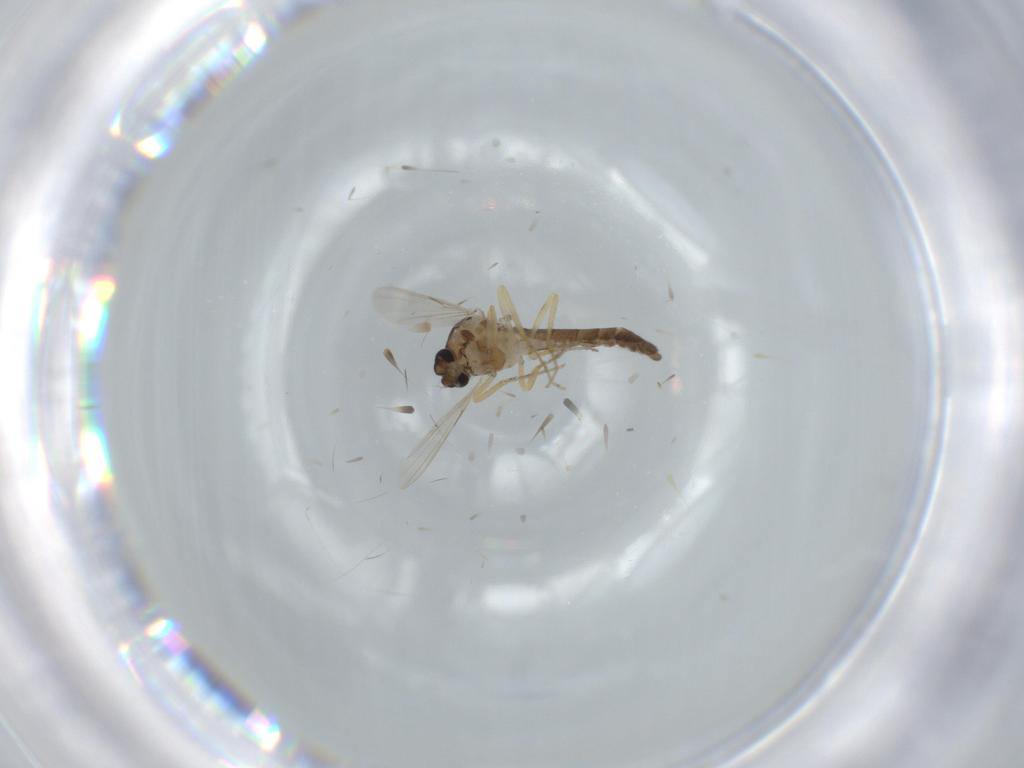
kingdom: Animalia
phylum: Arthropoda
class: Insecta
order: Diptera
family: Ceratopogonidae
